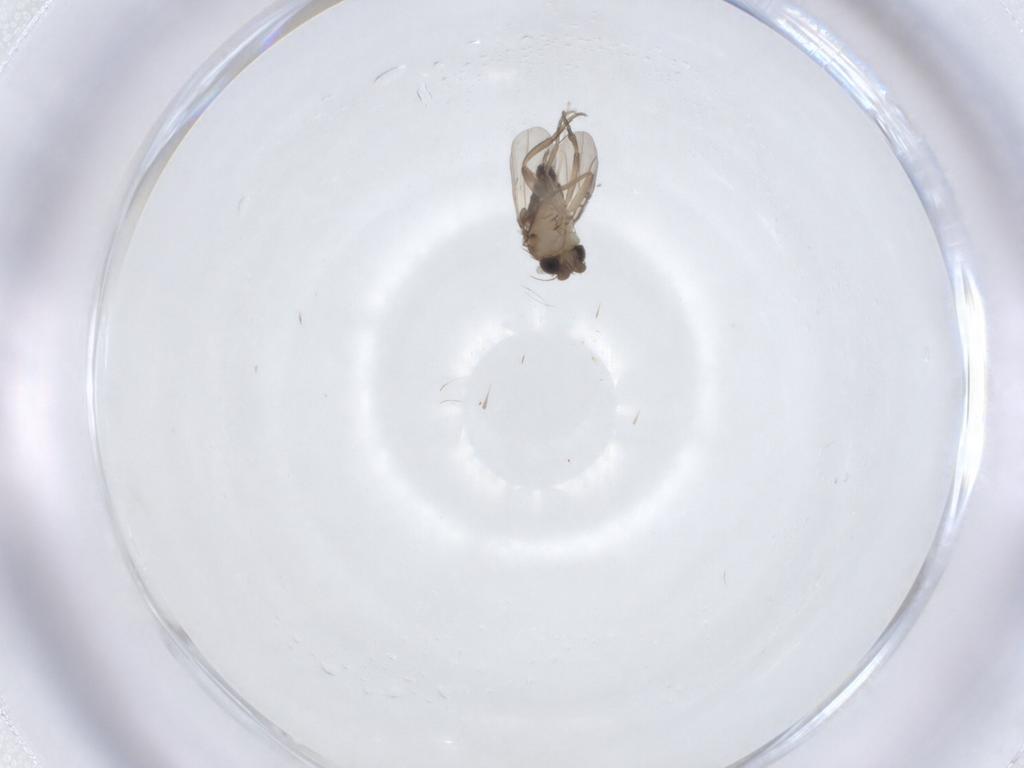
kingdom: Animalia
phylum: Arthropoda
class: Insecta
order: Diptera
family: Phoridae
